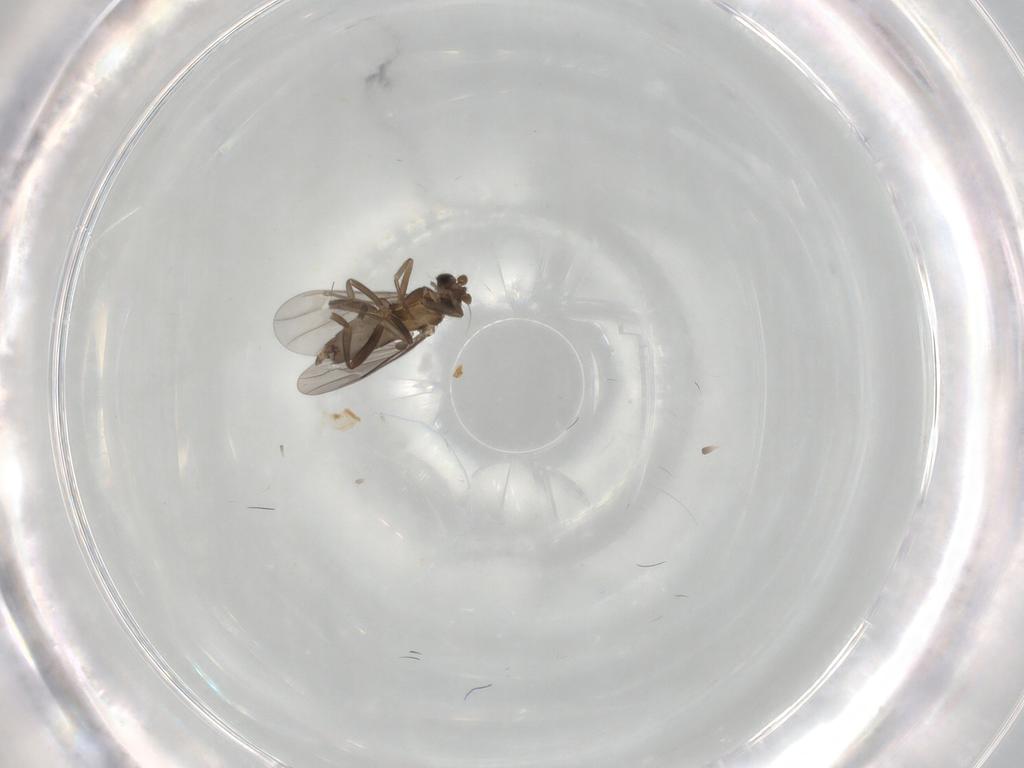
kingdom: Animalia
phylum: Arthropoda
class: Insecta
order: Diptera
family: Phoridae
